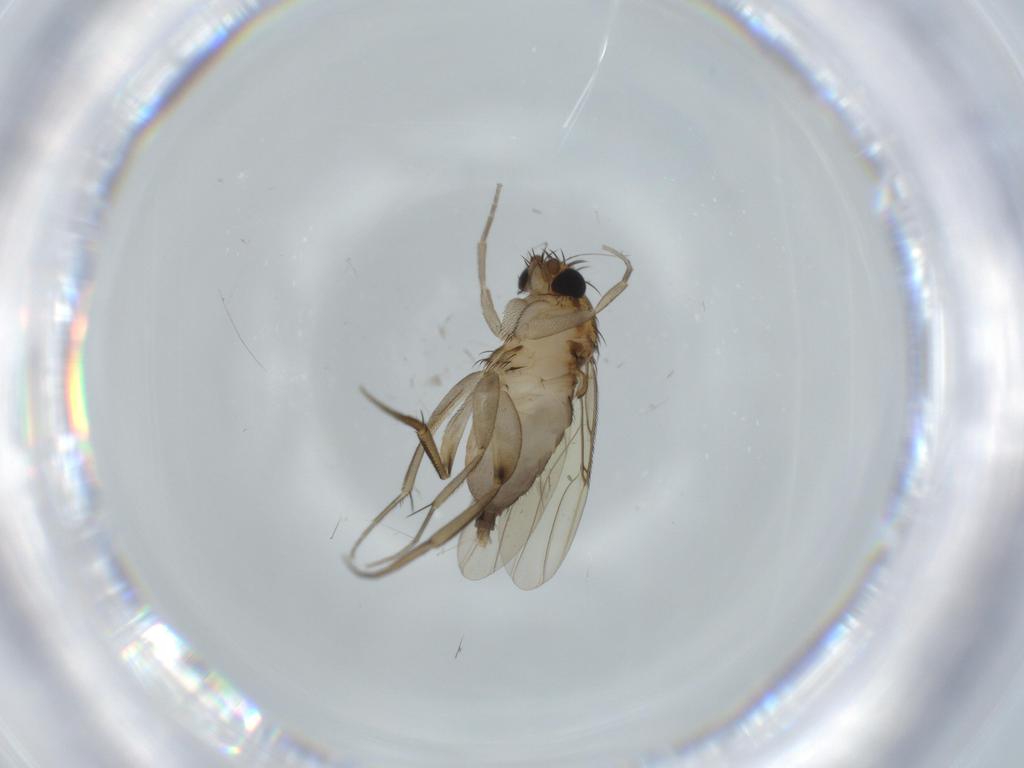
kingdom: Animalia
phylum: Arthropoda
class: Insecta
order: Diptera
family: Phoridae
